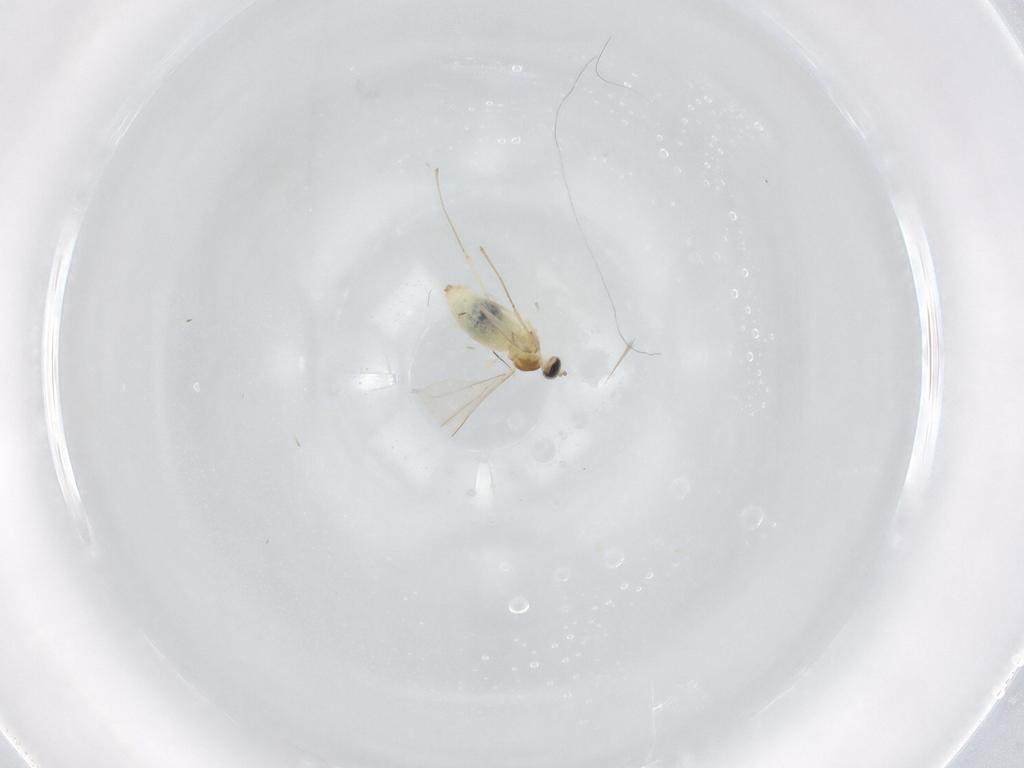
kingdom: Animalia
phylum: Arthropoda
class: Insecta
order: Diptera
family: Cecidomyiidae
